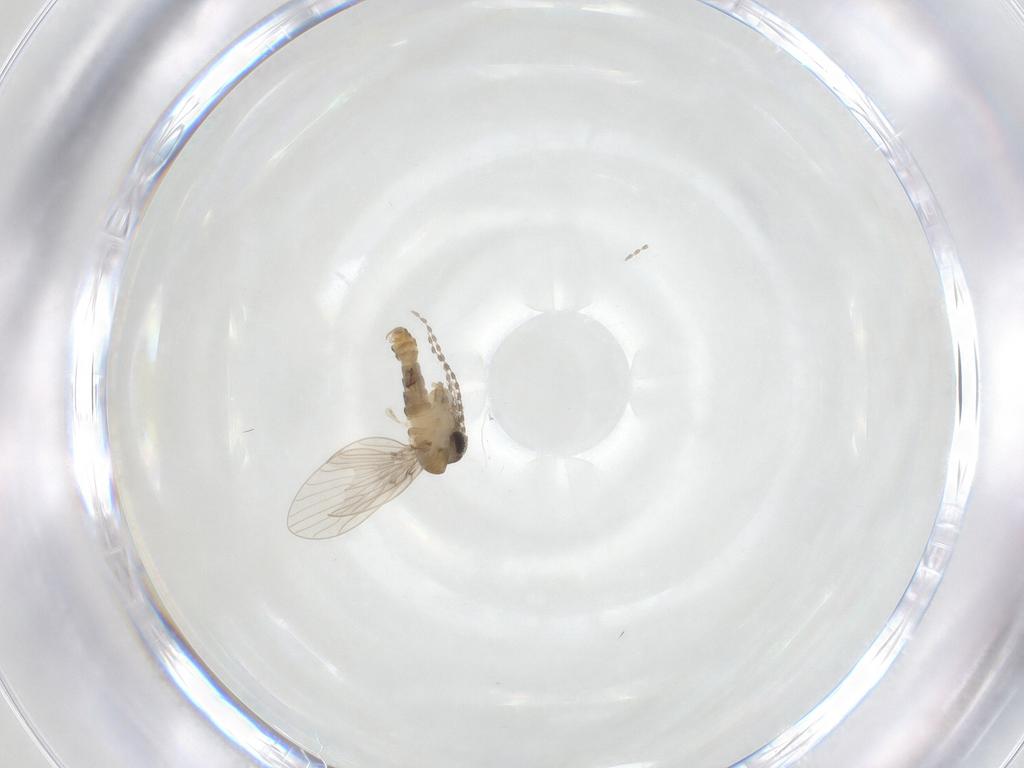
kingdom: Animalia
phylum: Arthropoda
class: Insecta
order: Diptera
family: Sciaridae
